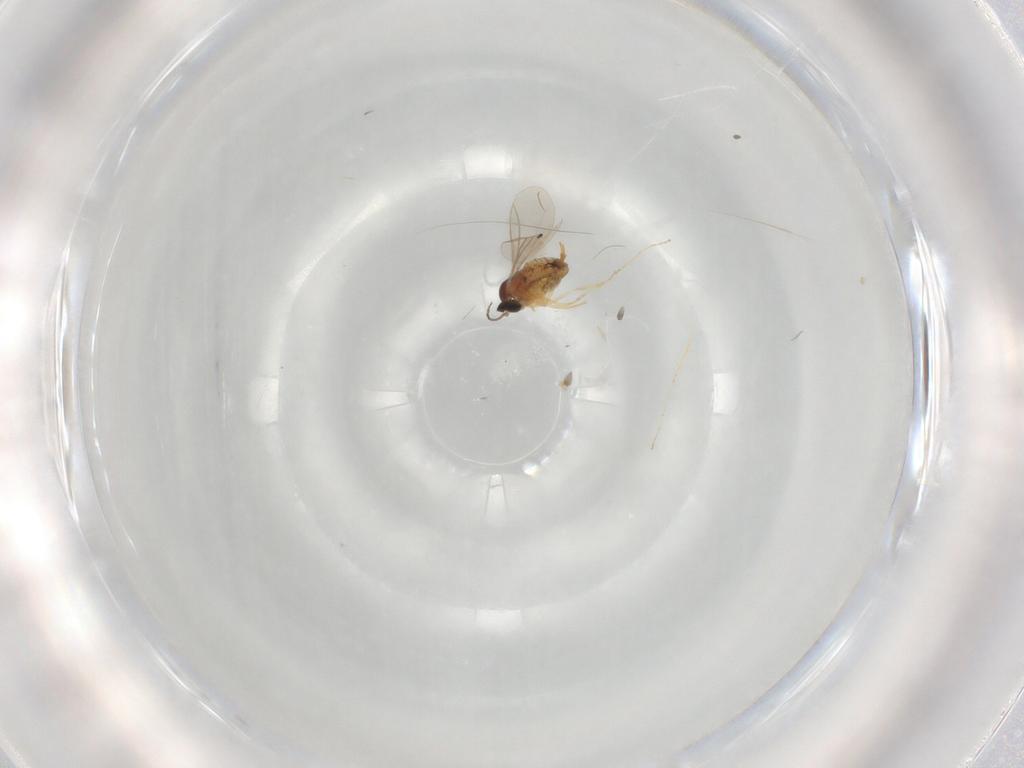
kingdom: Animalia
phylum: Arthropoda
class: Insecta
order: Diptera
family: Cecidomyiidae
